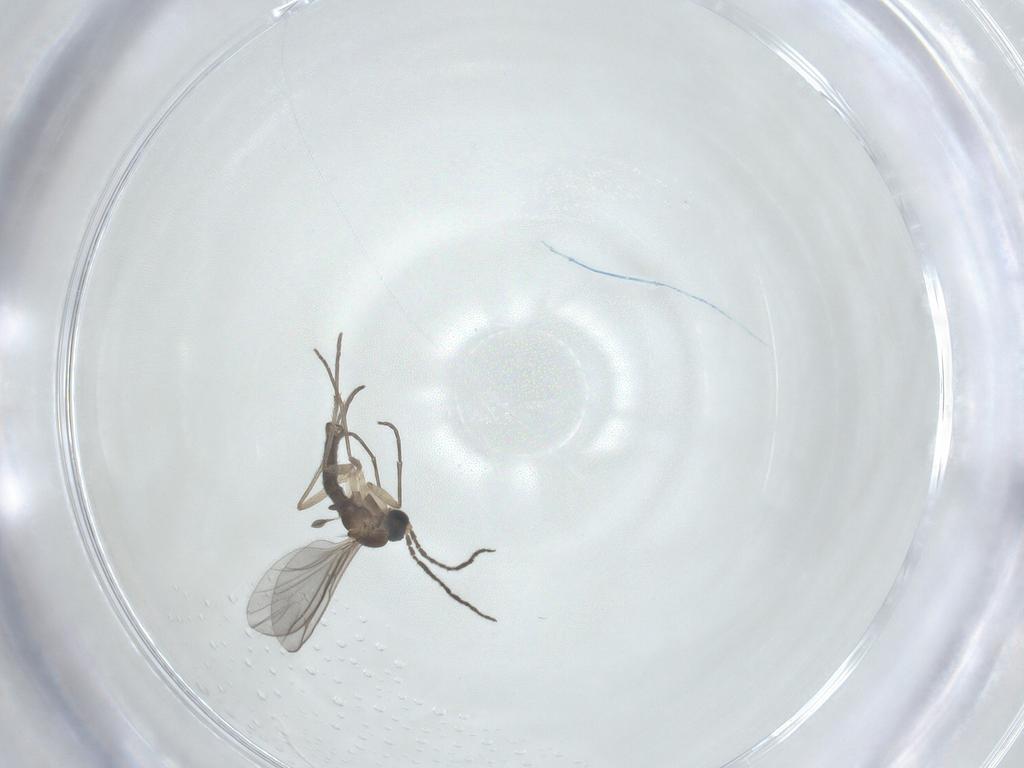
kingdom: Animalia
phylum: Arthropoda
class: Insecta
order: Diptera
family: Sciaridae
